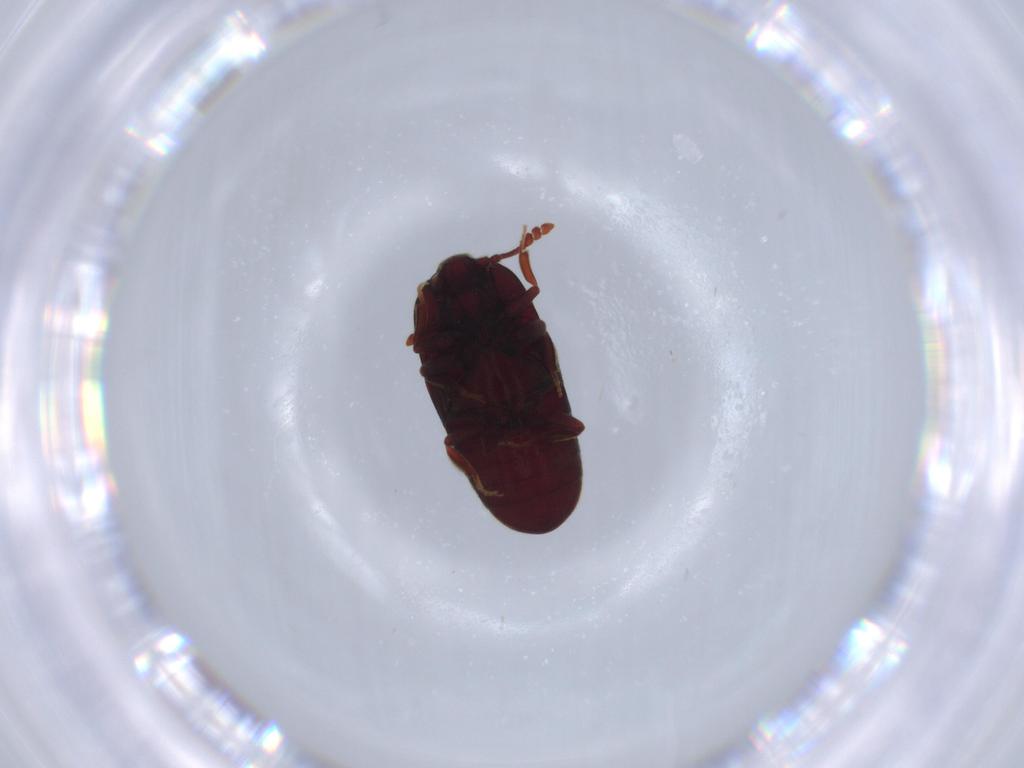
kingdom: Animalia
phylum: Arthropoda
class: Insecta
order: Coleoptera
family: Throscidae
